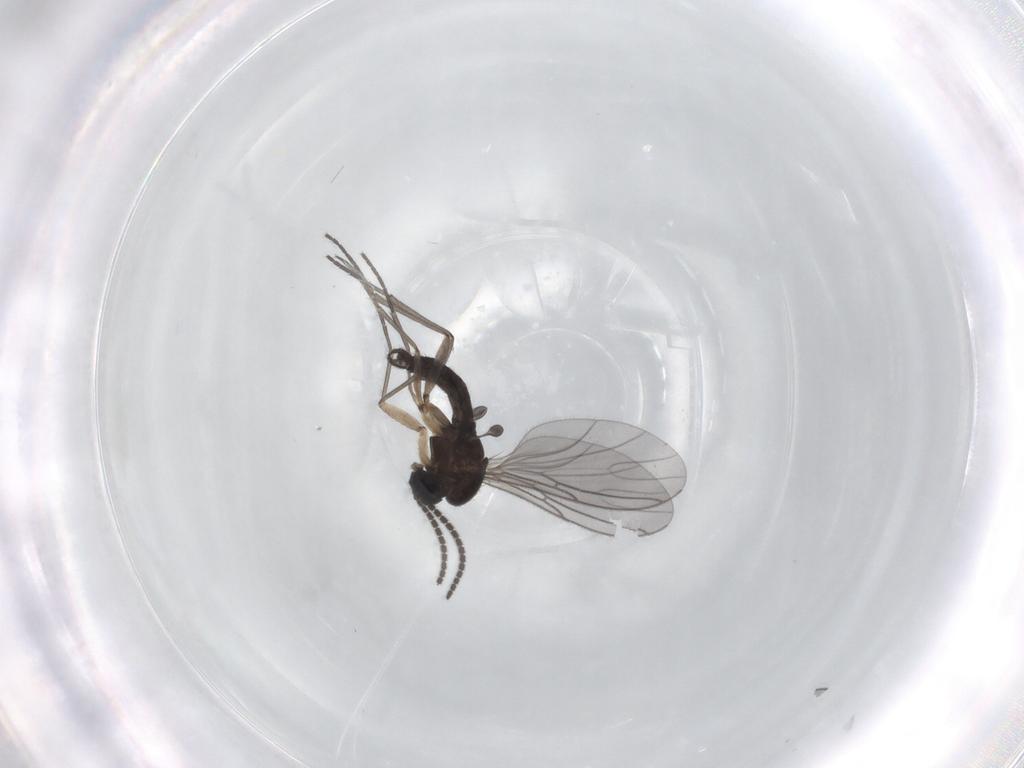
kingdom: Animalia
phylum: Arthropoda
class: Insecta
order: Diptera
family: Sciaridae
